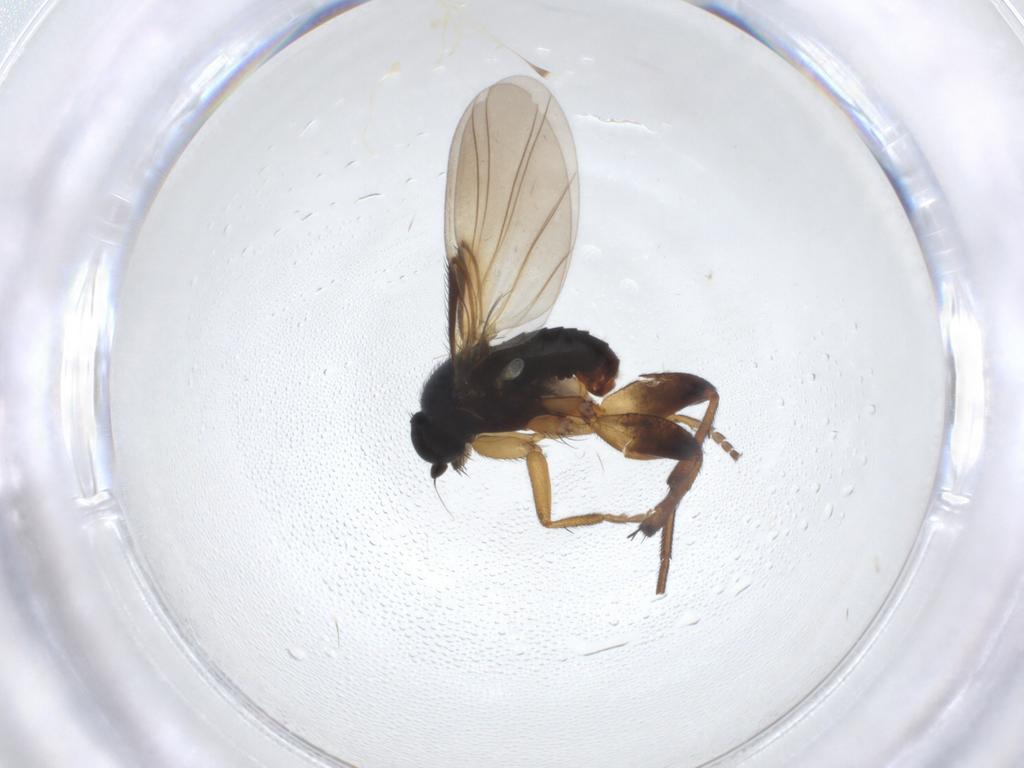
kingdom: Animalia
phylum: Arthropoda
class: Insecta
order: Diptera
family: Phoridae
